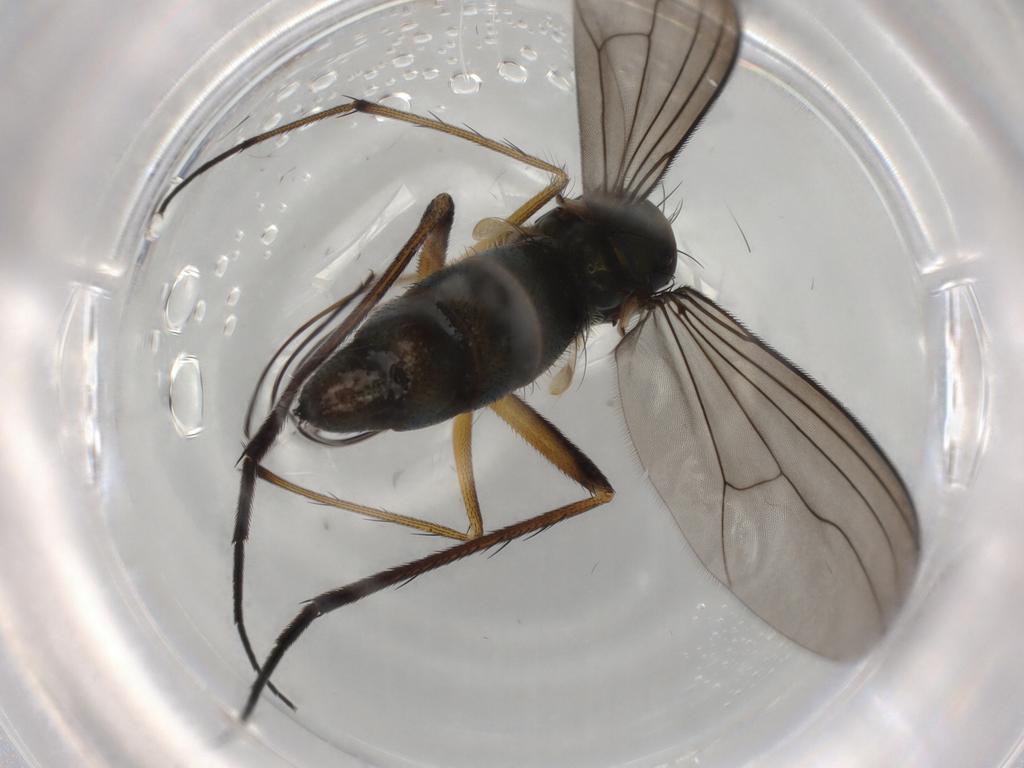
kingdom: Animalia
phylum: Arthropoda
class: Insecta
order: Diptera
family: Dolichopodidae
